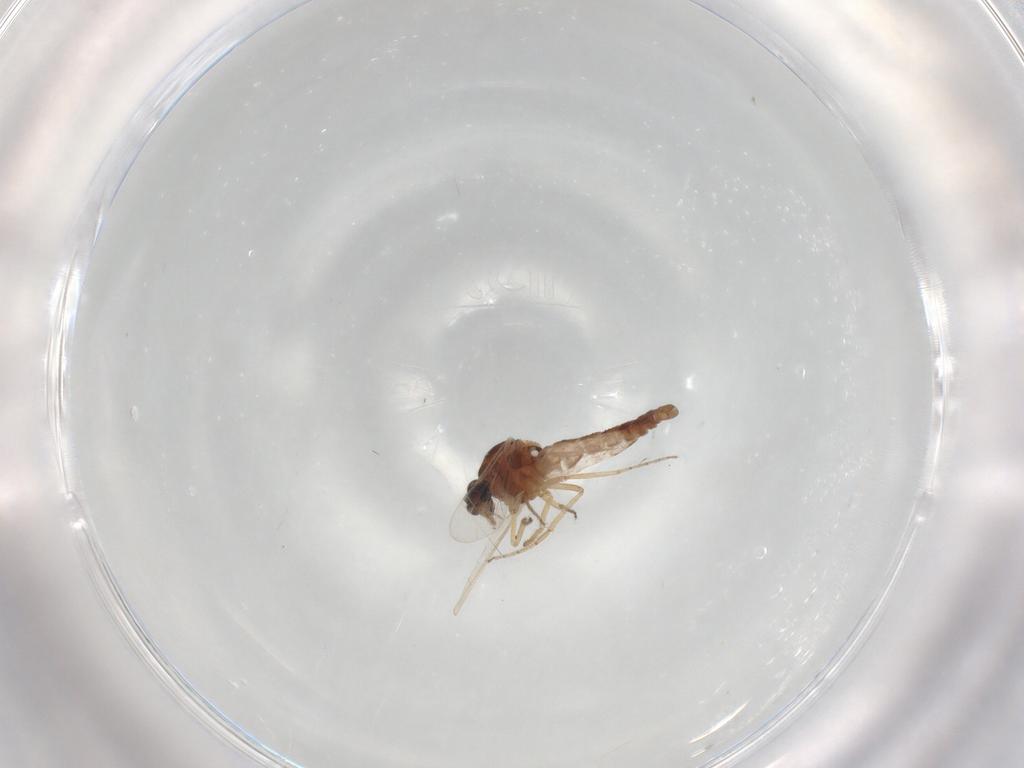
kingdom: Animalia
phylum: Arthropoda
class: Insecta
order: Diptera
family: Ceratopogonidae
